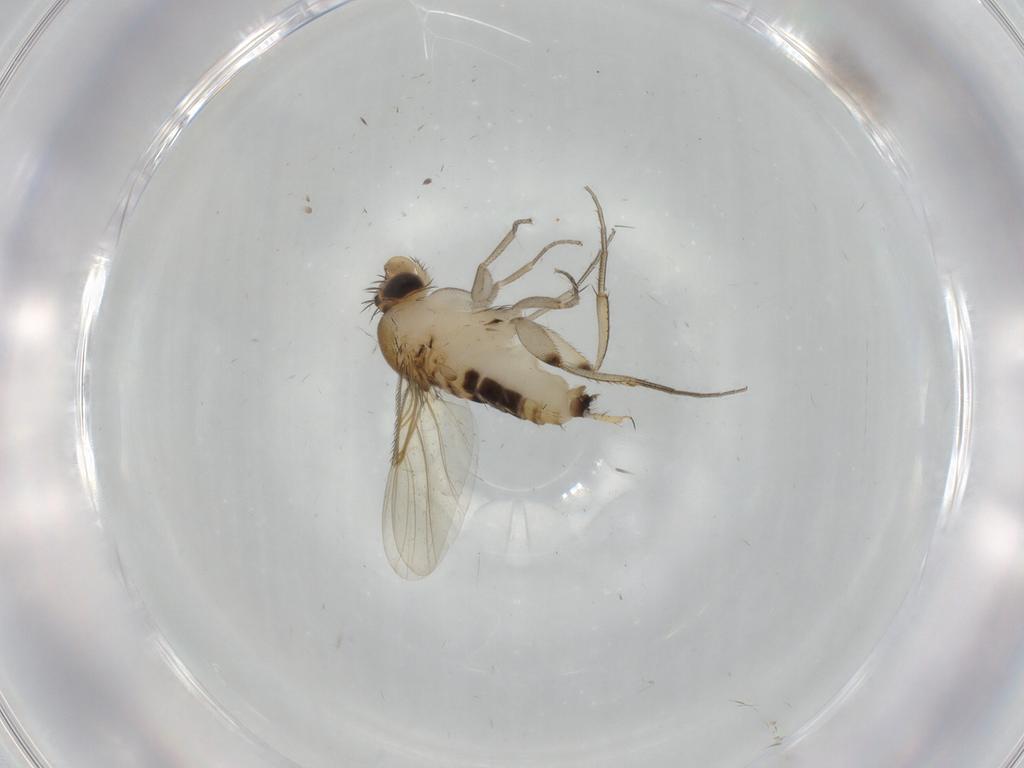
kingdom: Animalia
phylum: Arthropoda
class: Insecta
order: Diptera
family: Phoridae
